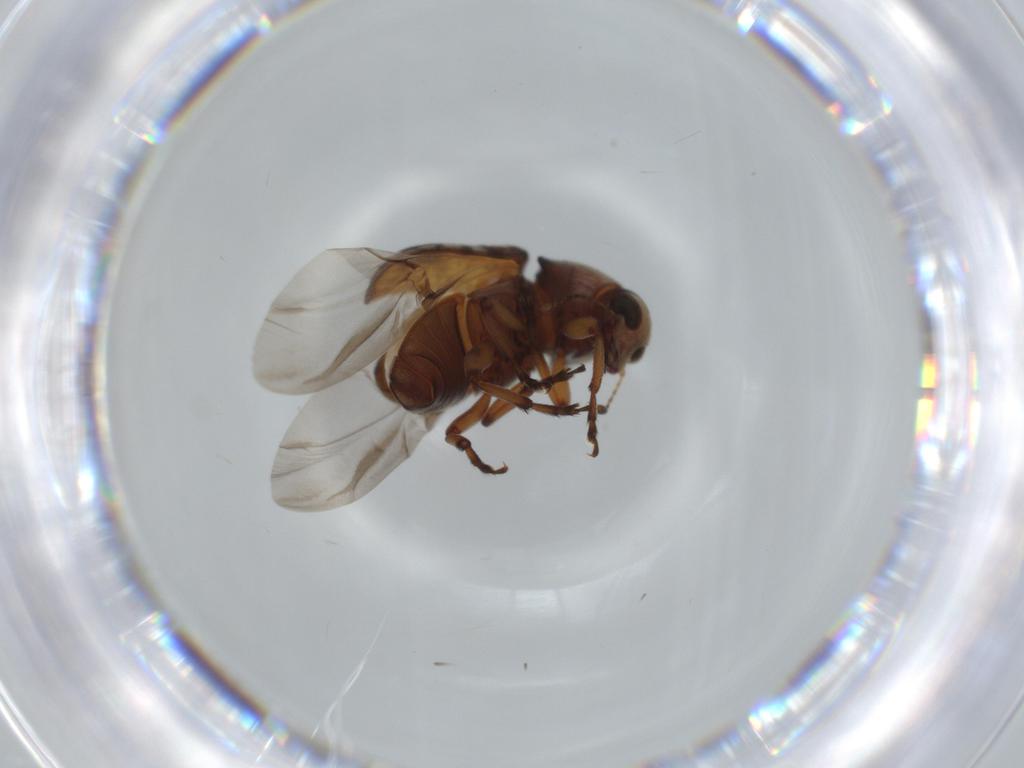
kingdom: Animalia
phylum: Arthropoda
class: Insecta
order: Coleoptera
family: Anthribidae
